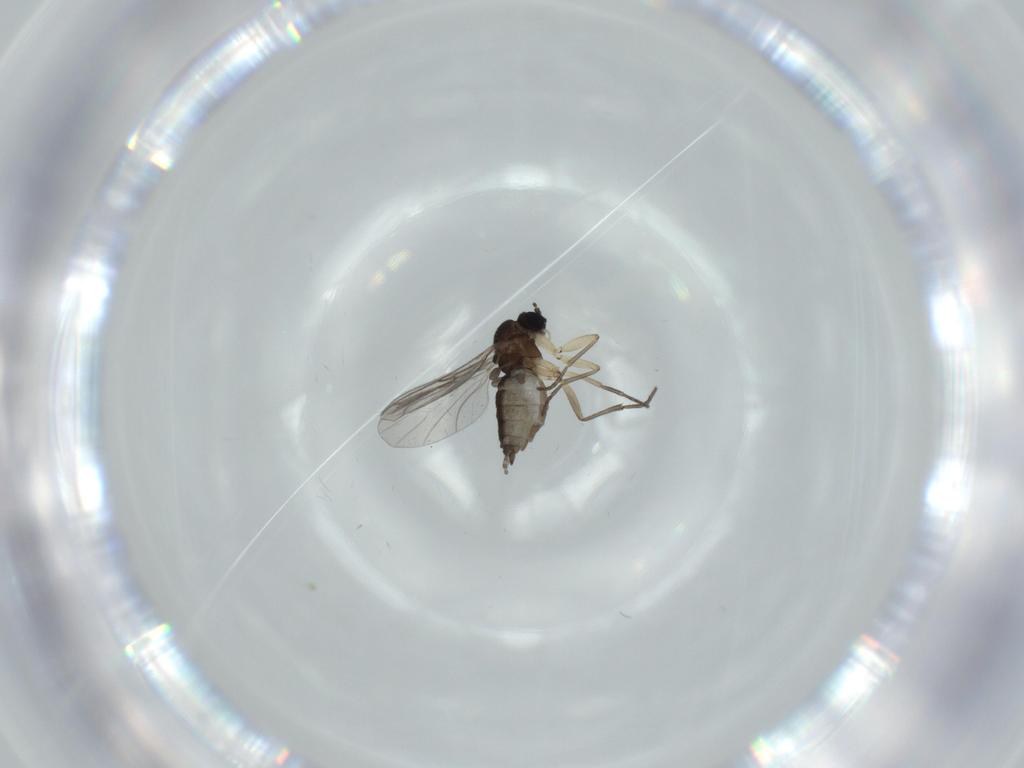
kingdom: Animalia
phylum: Arthropoda
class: Insecta
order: Diptera
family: Sciaridae
